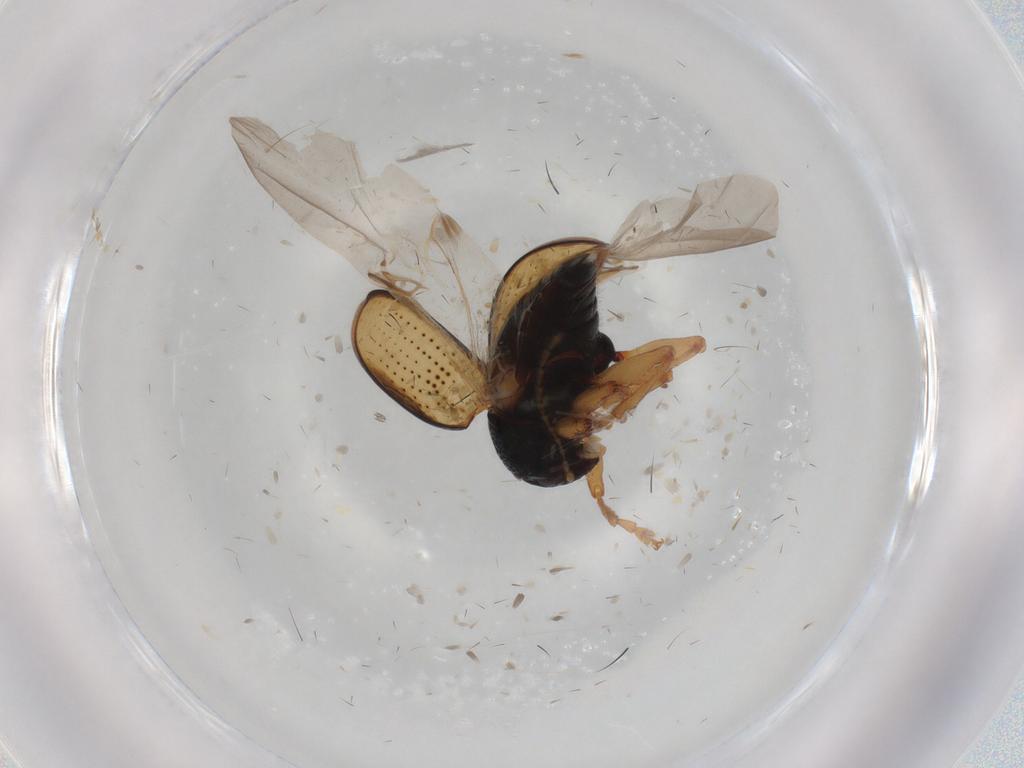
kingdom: Animalia
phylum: Arthropoda
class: Insecta
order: Coleoptera
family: Chrysomelidae
